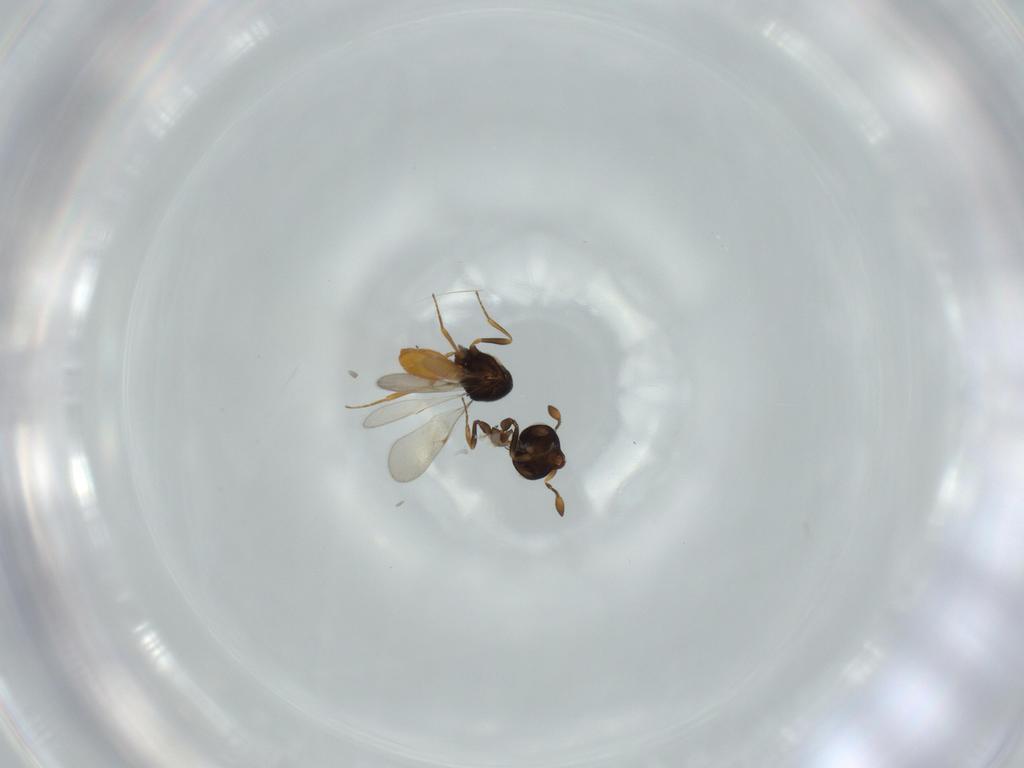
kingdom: Animalia
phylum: Arthropoda
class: Insecta
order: Hymenoptera
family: Scelionidae
